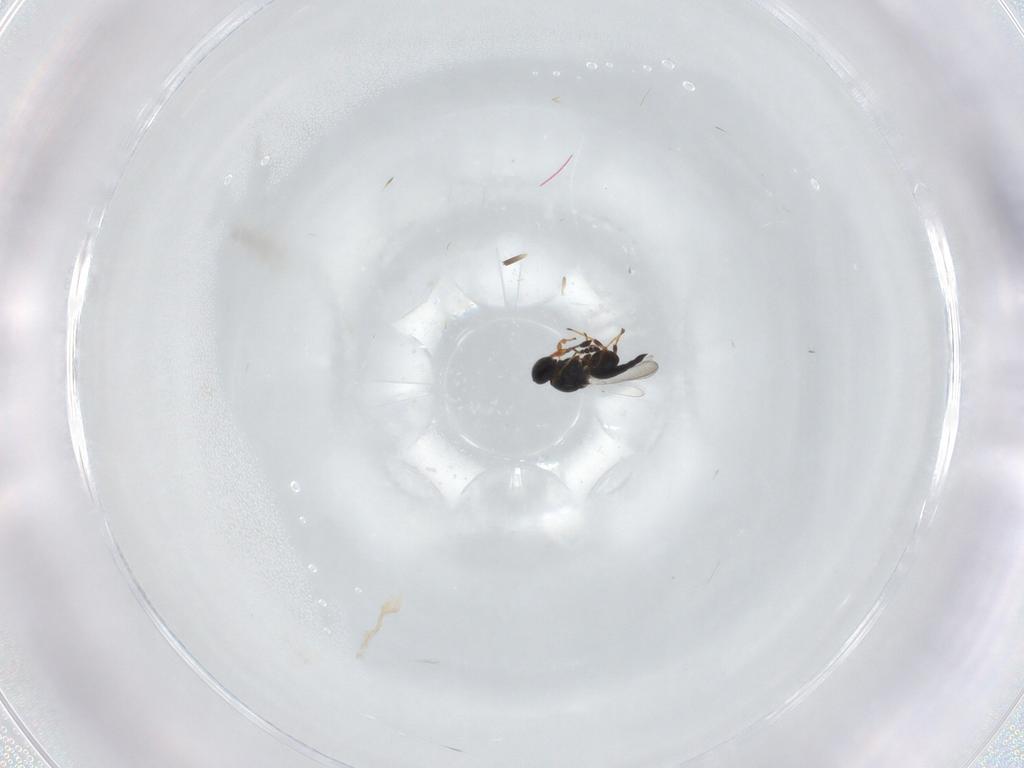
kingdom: Animalia
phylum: Arthropoda
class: Insecta
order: Hymenoptera
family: Platygastridae
